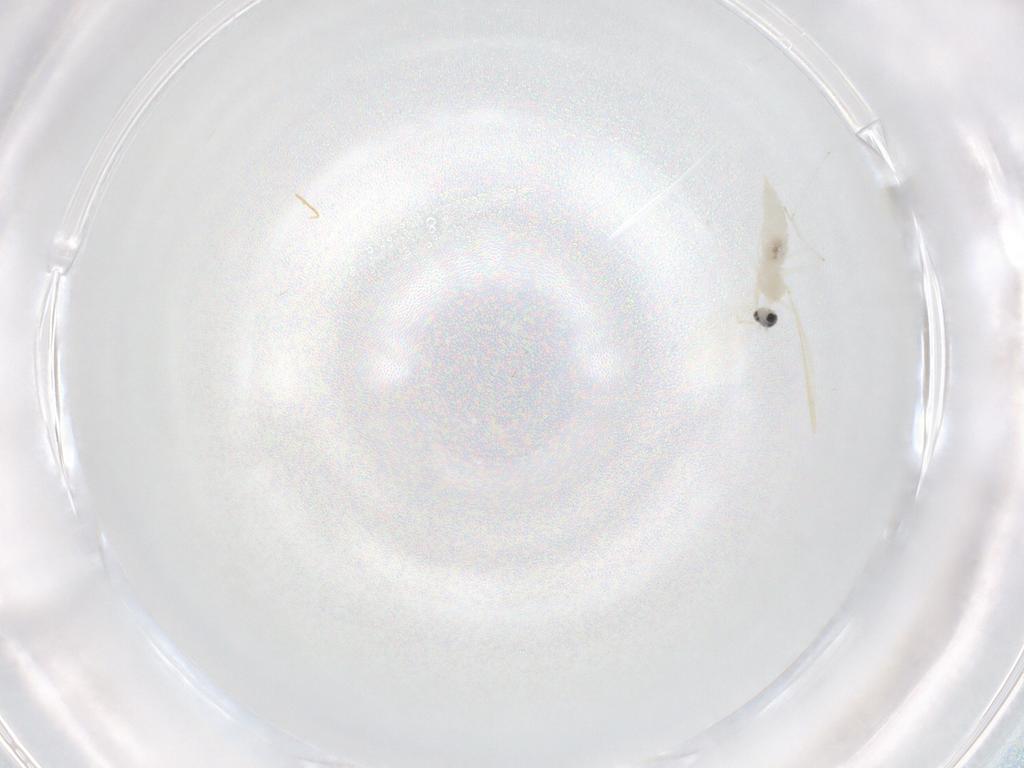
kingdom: Animalia
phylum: Arthropoda
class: Insecta
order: Diptera
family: Cecidomyiidae
